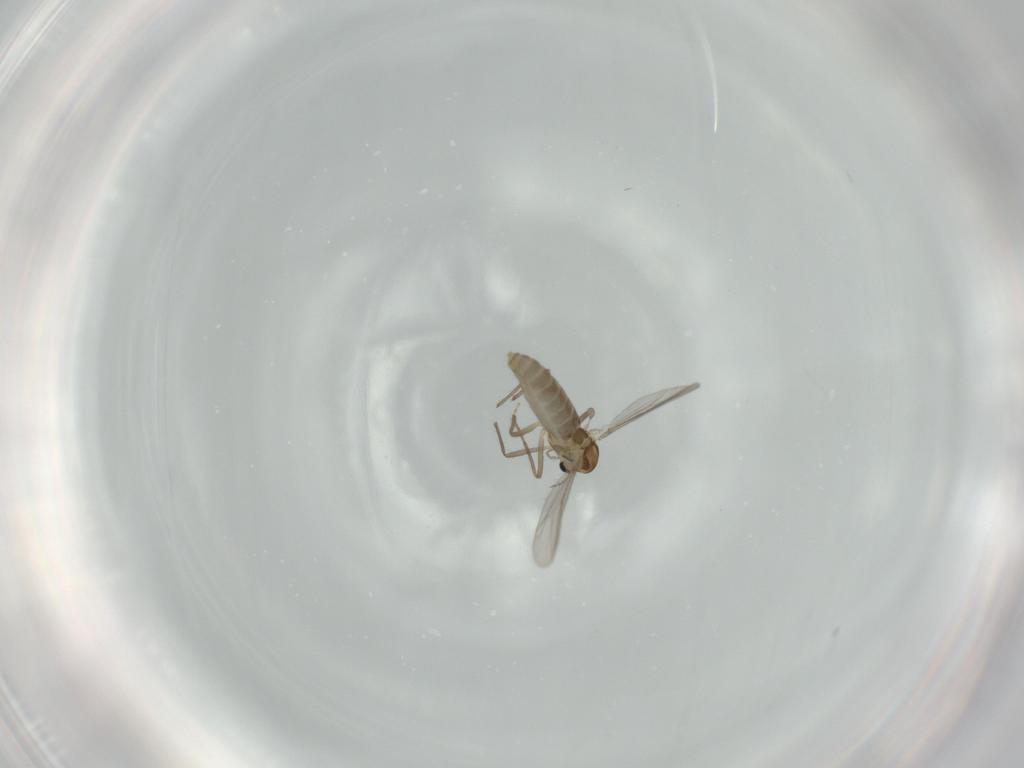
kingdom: Animalia
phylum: Arthropoda
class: Insecta
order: Diptera
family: Chironomidae
